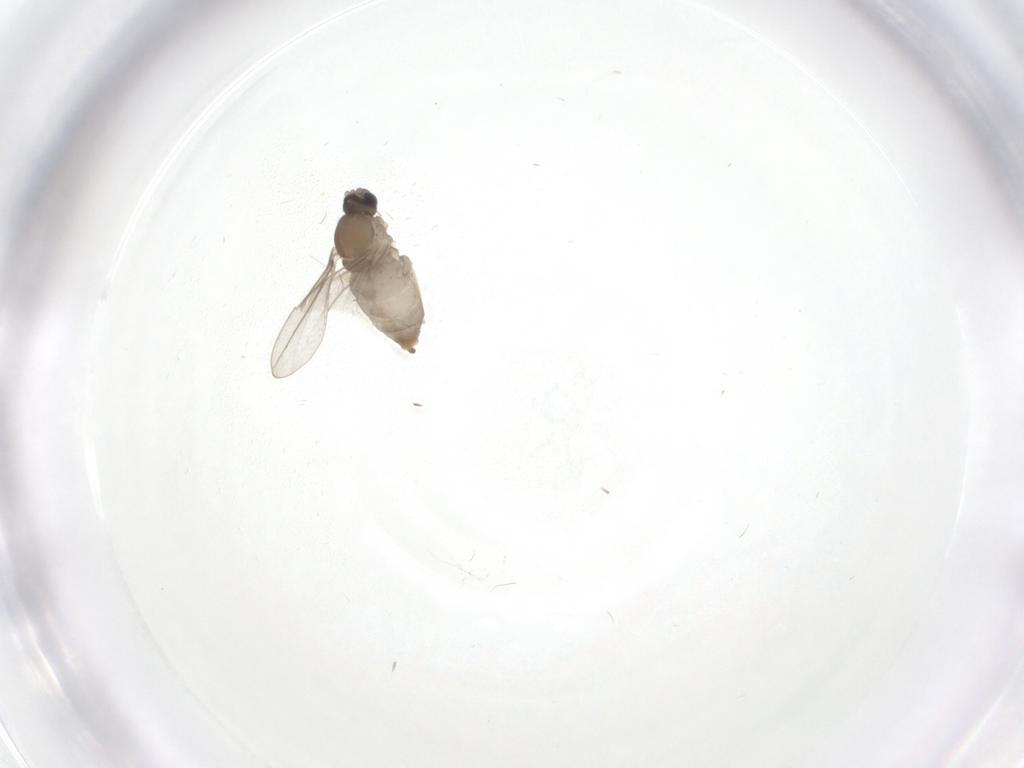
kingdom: Animalia
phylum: Arthropoda
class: Insecta
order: Diptera
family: Cecidomyiidae
